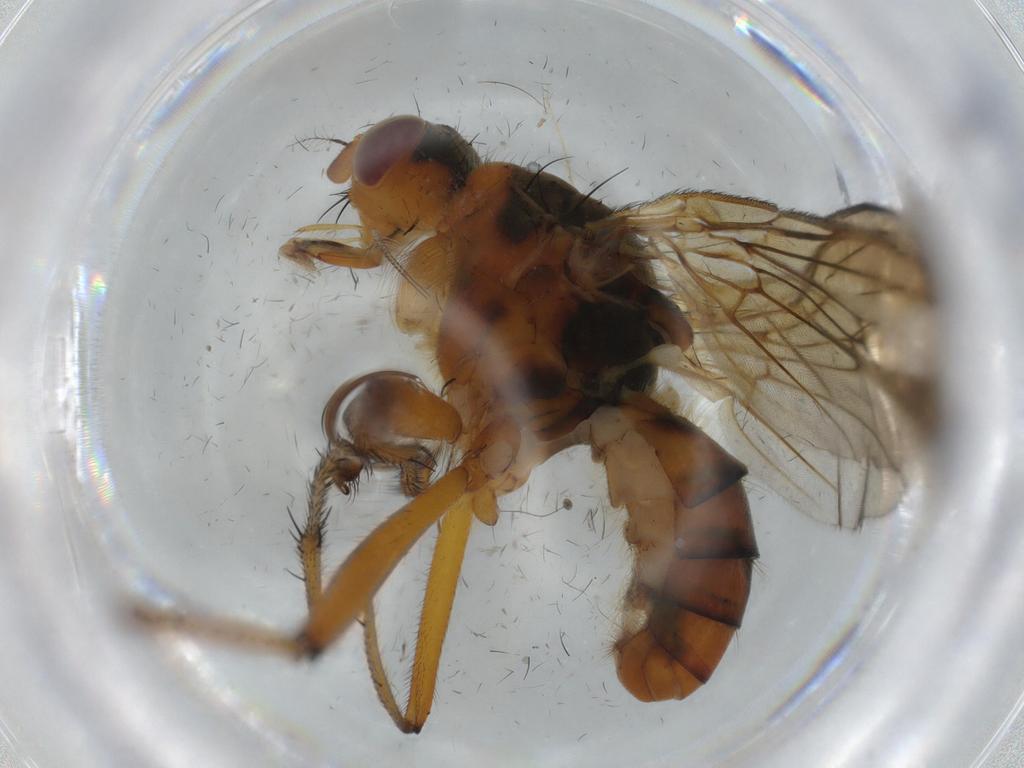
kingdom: Animalia
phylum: Arthropoda
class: Insecta
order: Diptera
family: Scathophagidae
